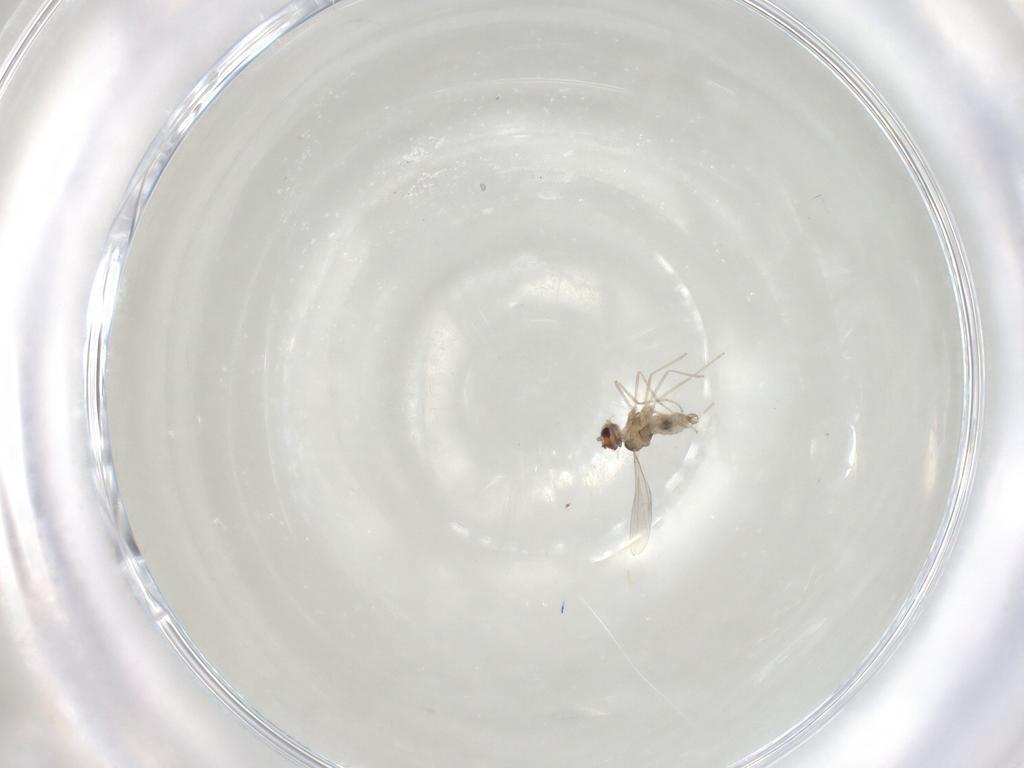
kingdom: Animalia
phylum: Arthropoda
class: Insecta
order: Diptera
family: Cecidomyiidae
